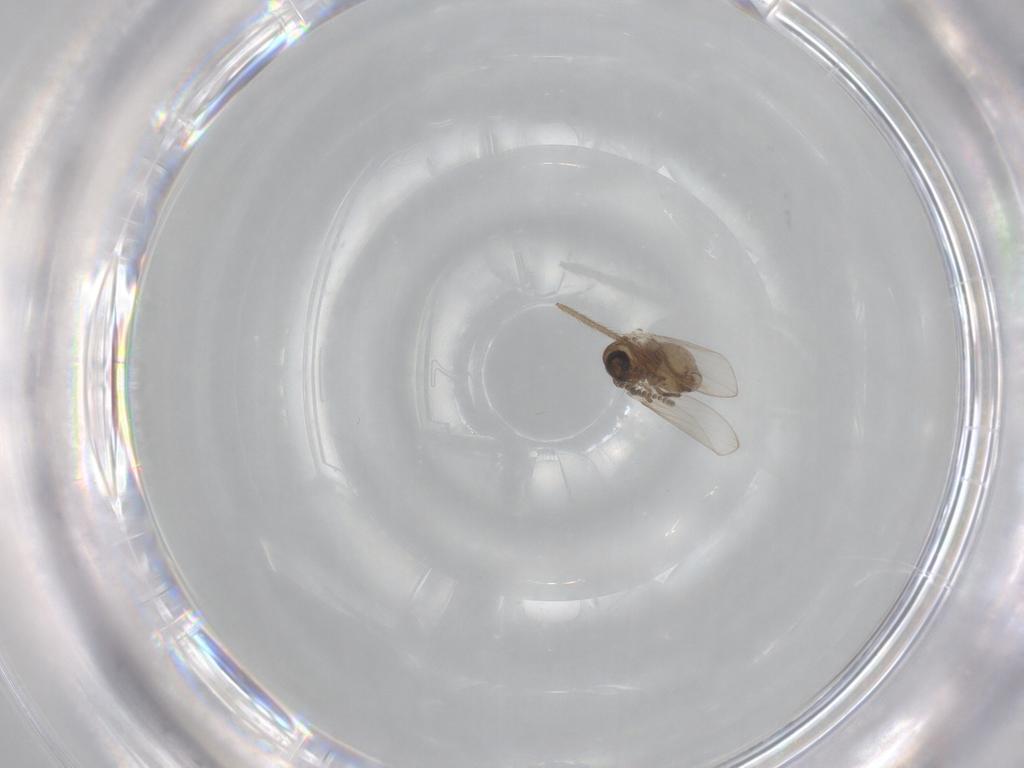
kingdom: Animalia
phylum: Arthropoda
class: Insecta
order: Diptera
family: Psychodidae
